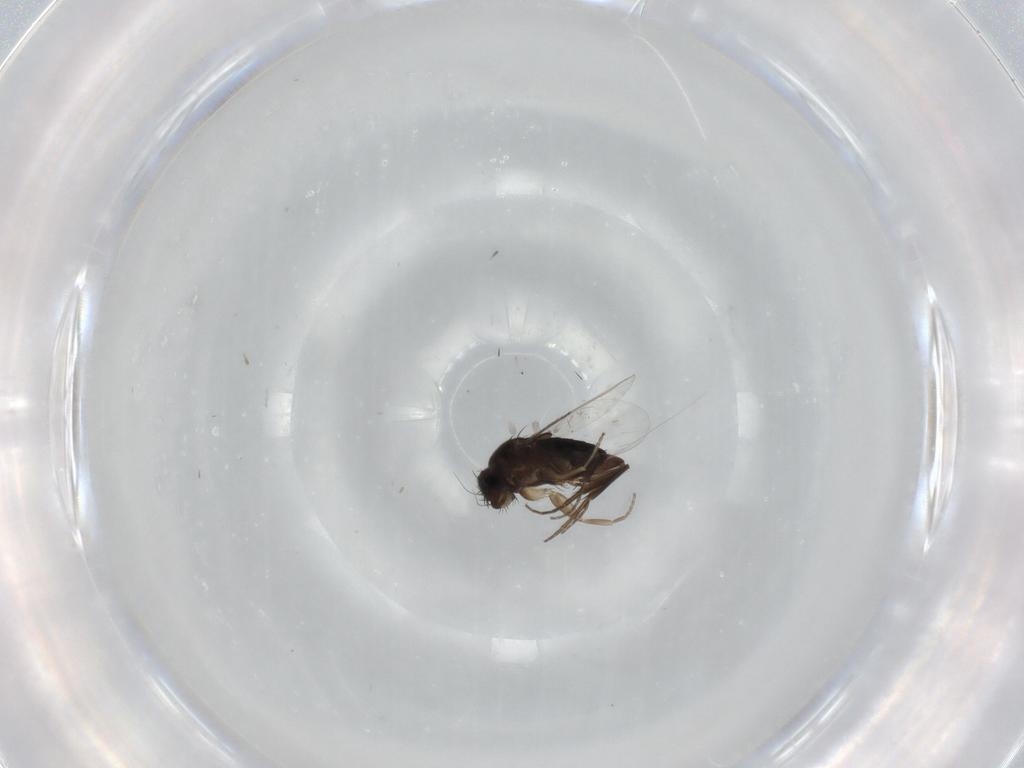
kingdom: Animalia
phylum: Arthropoda
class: Insecta
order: Diptera
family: Phoridae
